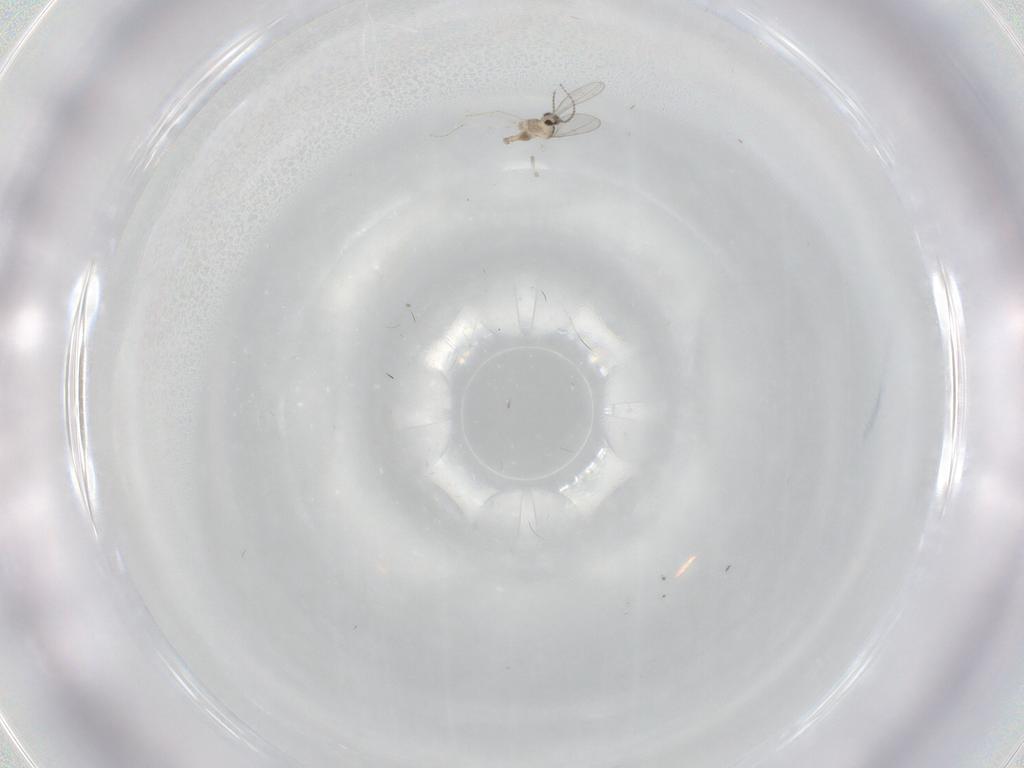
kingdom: Animalia
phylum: Arthropoda
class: Insecta
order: Diptera
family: Cecidomyiidae
